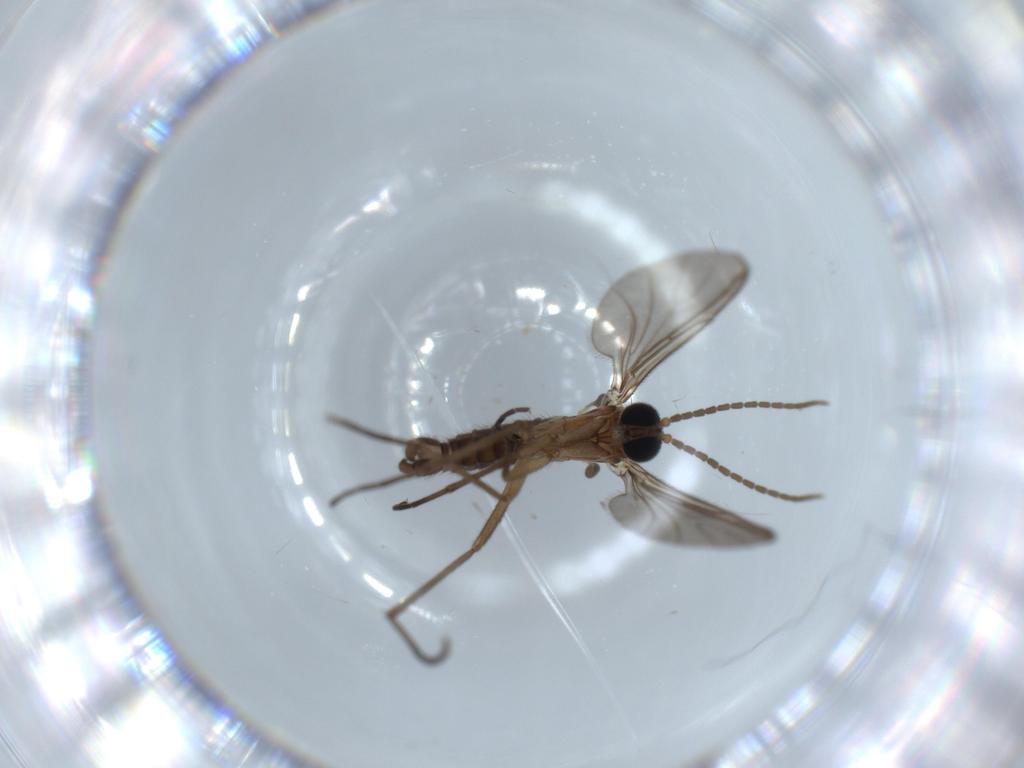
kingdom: Animalia
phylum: Arthropoda
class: Insecta
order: Diptera
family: Sciaridae
